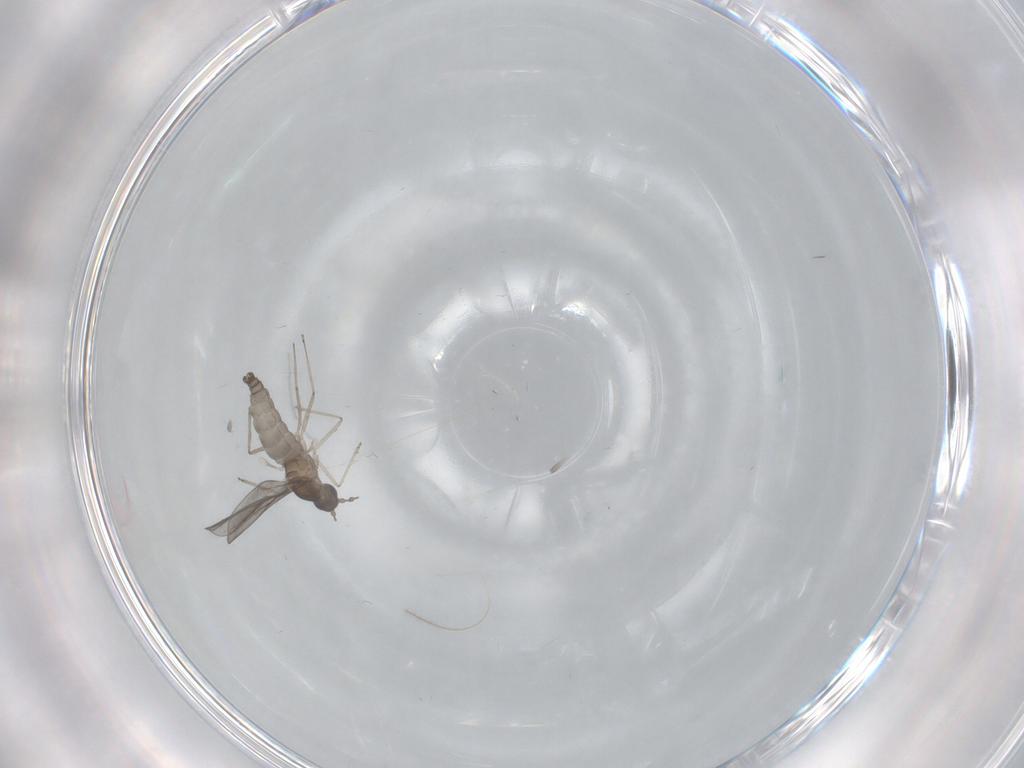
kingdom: Animalia
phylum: Arthropoda
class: Insecta
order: Diptera
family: Cecidomyiidae
